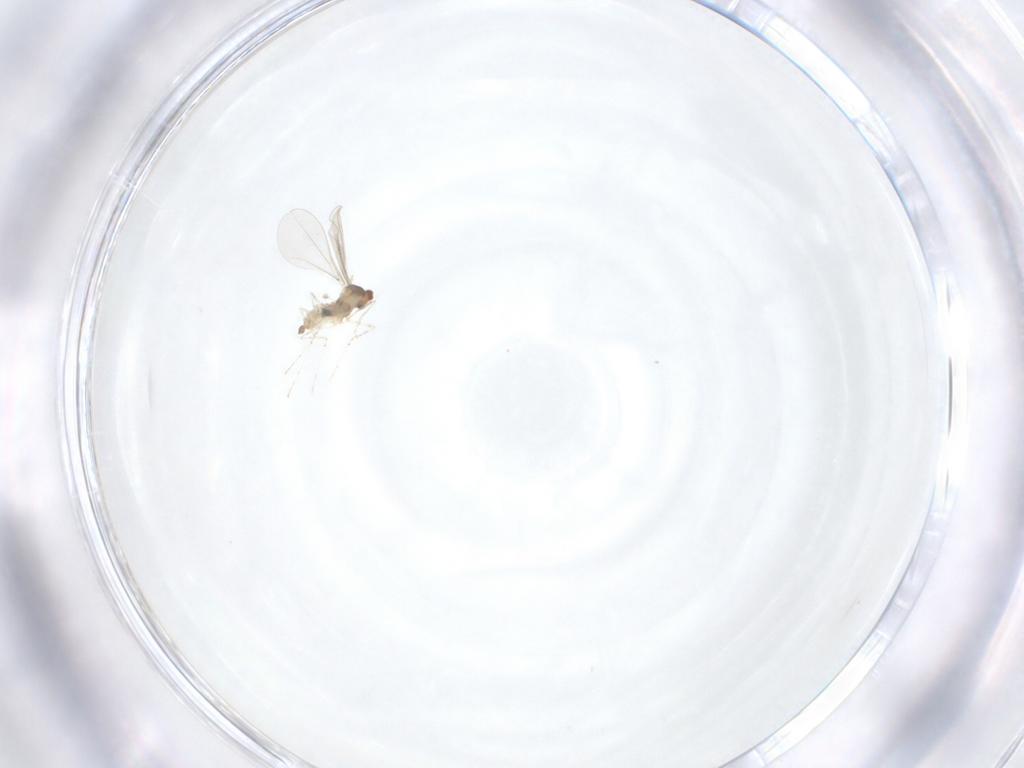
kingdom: Animalia
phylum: Arthropoda
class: Insecta
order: Diptera
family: Cecidomyiidae
